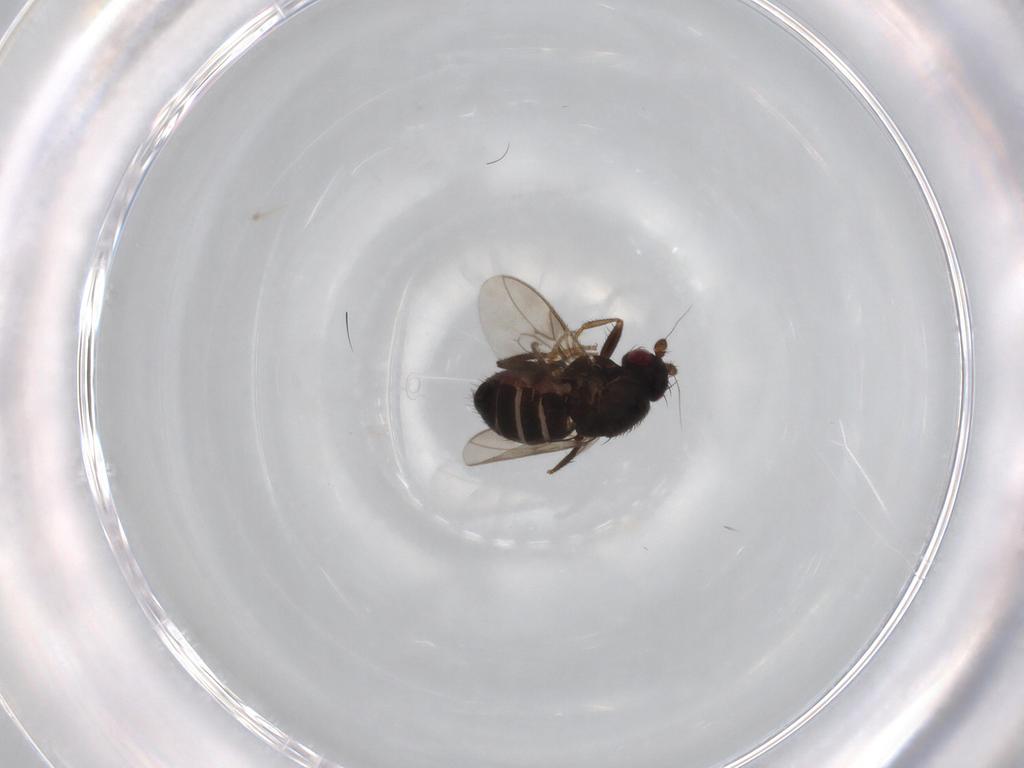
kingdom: Animalia
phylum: Arthropoda
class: Insecta
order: Diptera
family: Sphaeroceridae
